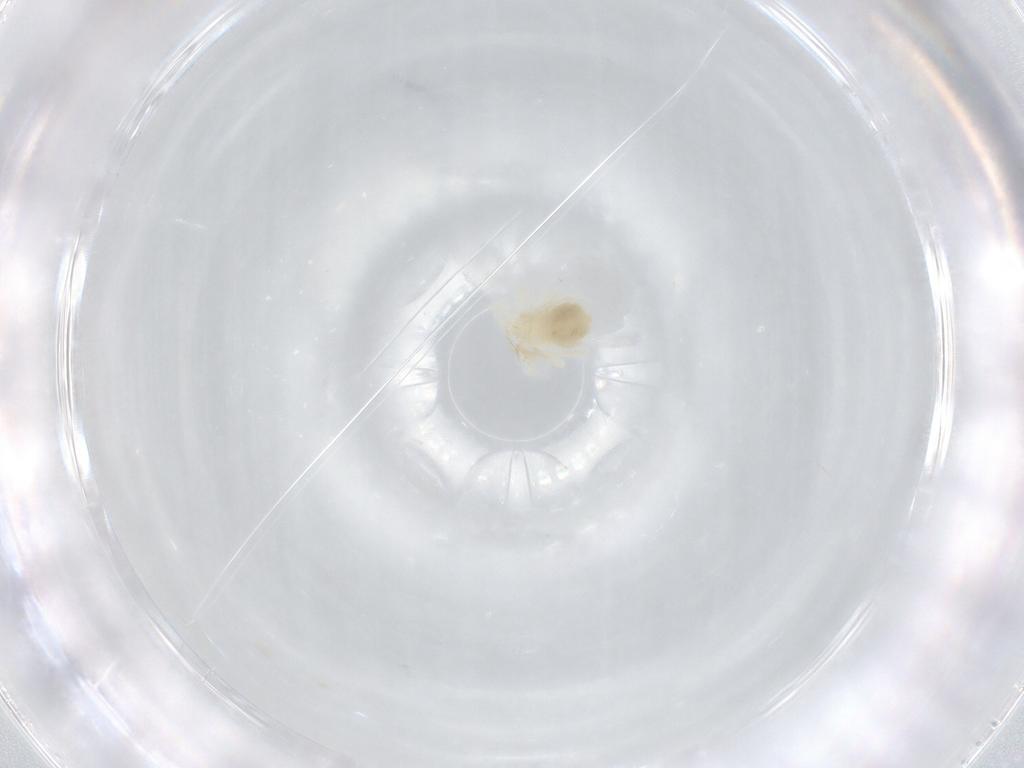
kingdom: Animalia
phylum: Arthropoda
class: Arachnida
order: Trombidiformes
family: Anystidae
